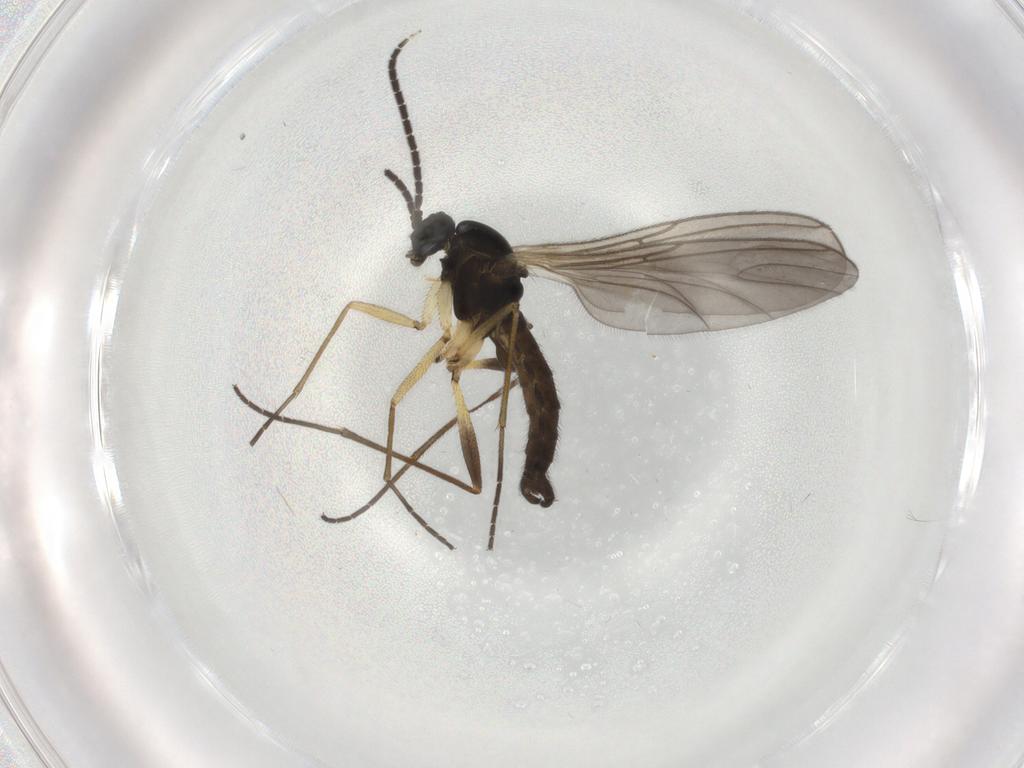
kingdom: Animalia
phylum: Arthropoda
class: Insecta
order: Diptera
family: Sciaridae
